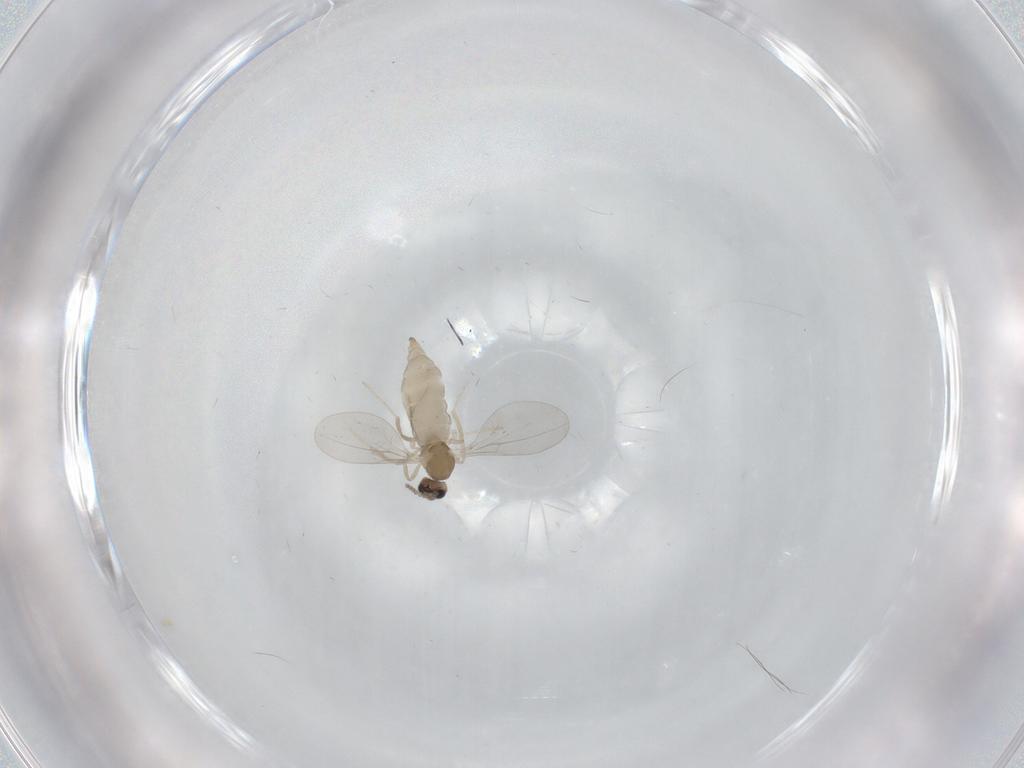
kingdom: Animalia
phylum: Arthropoda
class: Insecta
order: Diptera
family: Cecidomyiidae
